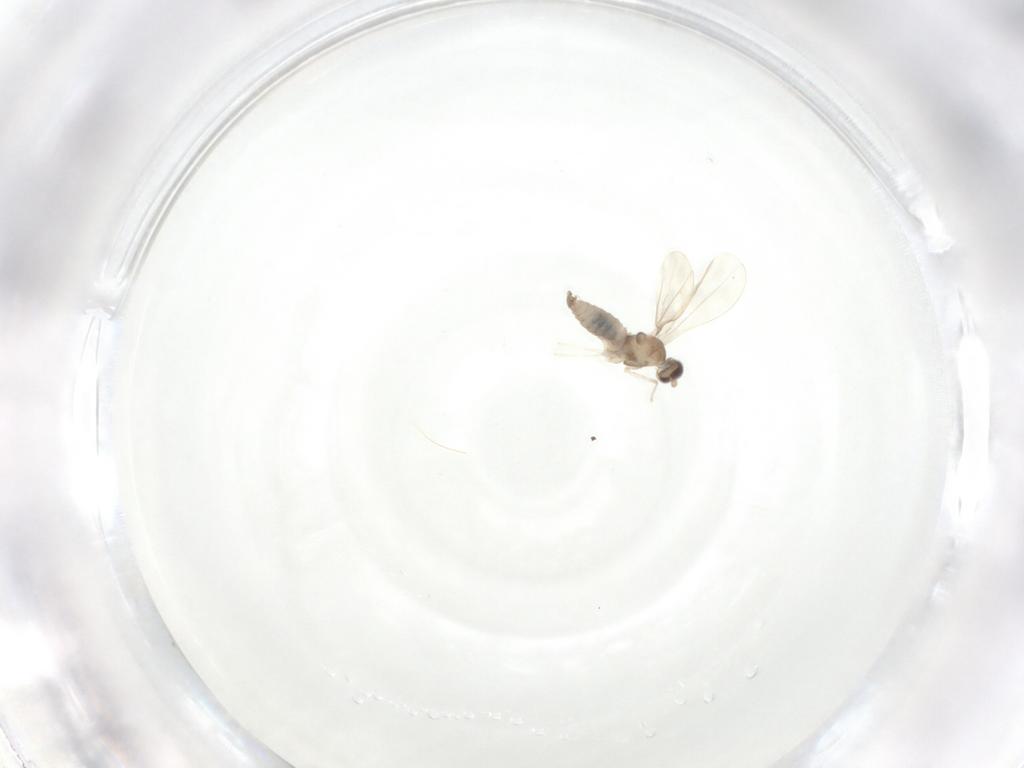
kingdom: Animalia
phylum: Arthropoda
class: Insecta
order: Diptera
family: Cecidomyiidae
